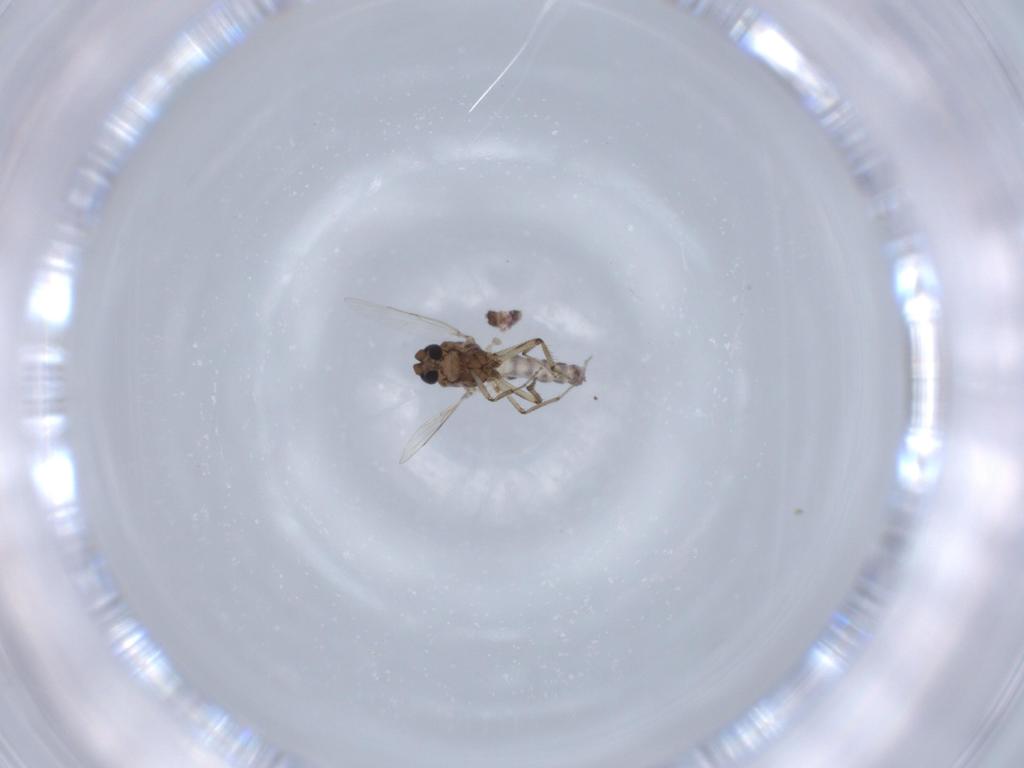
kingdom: Animalia
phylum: Arthropoda
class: Insecta
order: Diptera
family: Ceratopogonidae
